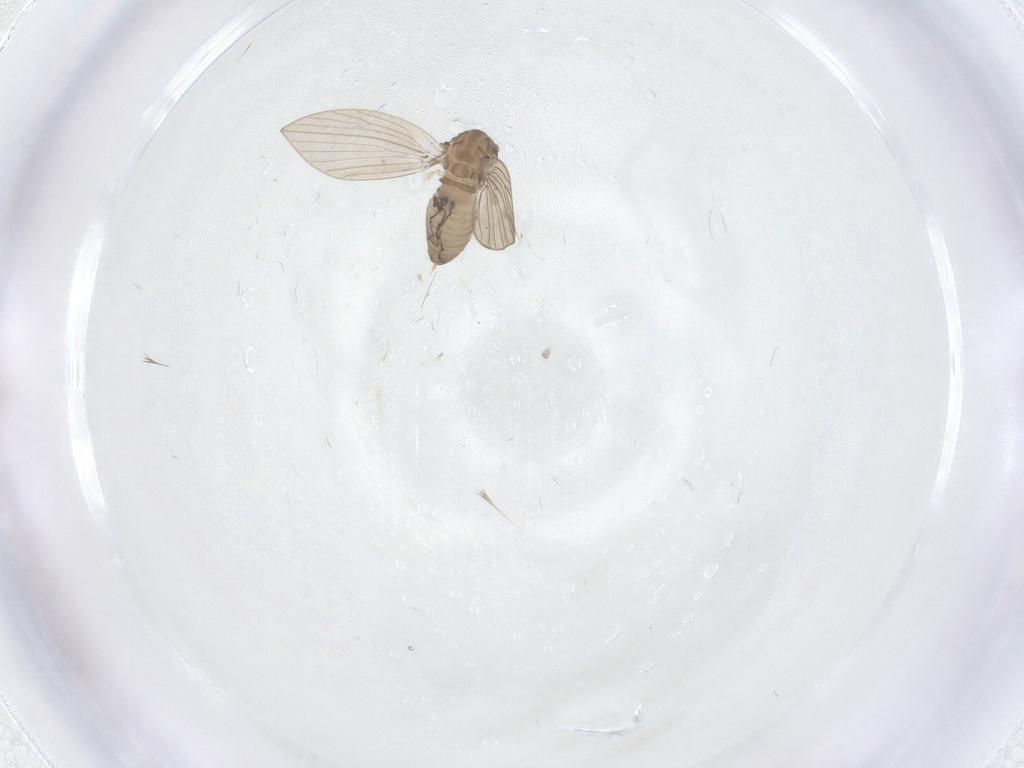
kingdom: Animalia
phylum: Arthropoda
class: Insecta
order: Diptera
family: Psychodidae
